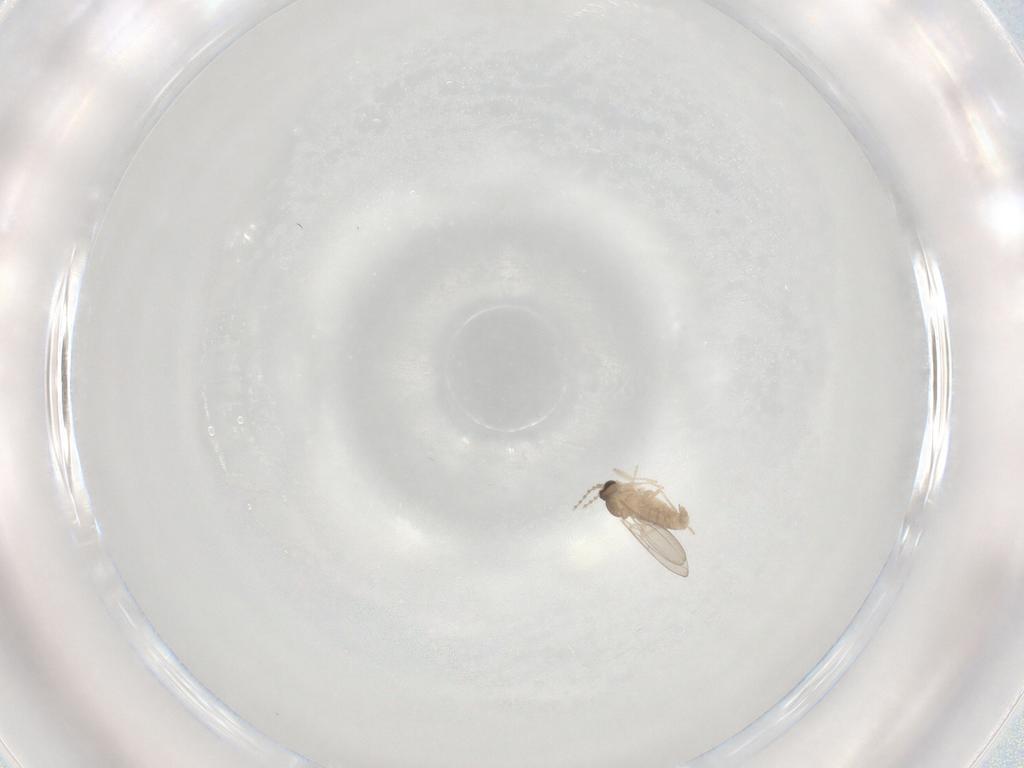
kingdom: Animalia
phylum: Arthropoda
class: Insecta
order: Diptera
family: Cecidomyiidae
